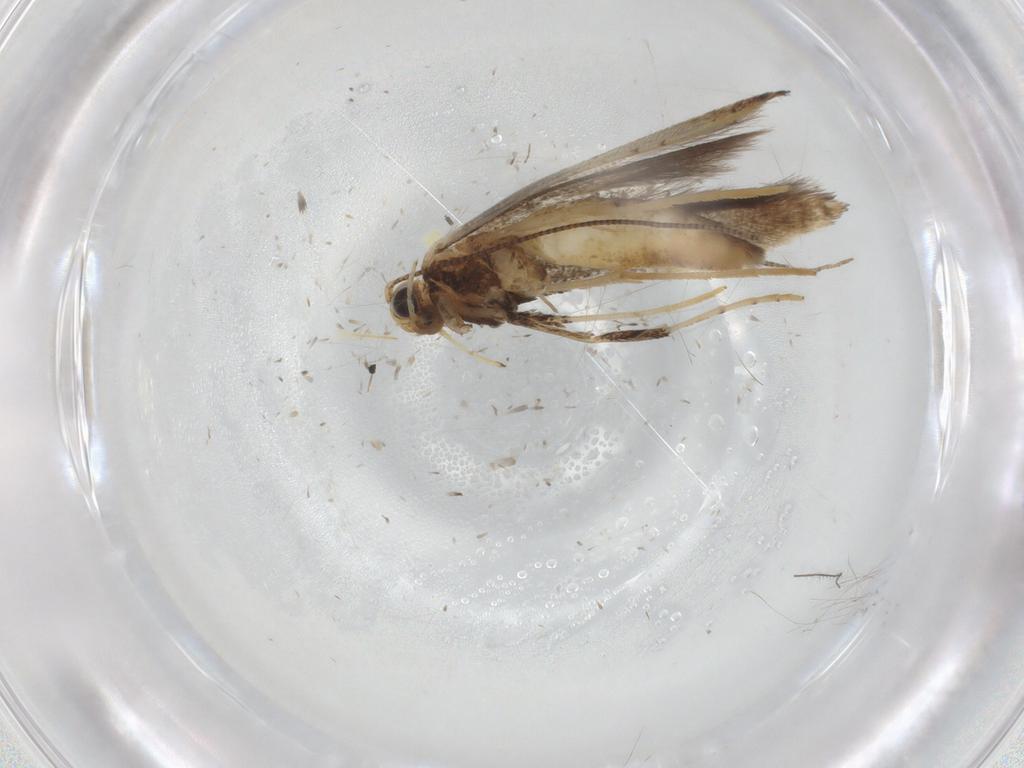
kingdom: Animalia
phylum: Arthropoda
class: Insecta
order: Lepidoptera
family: Gracillariidae
